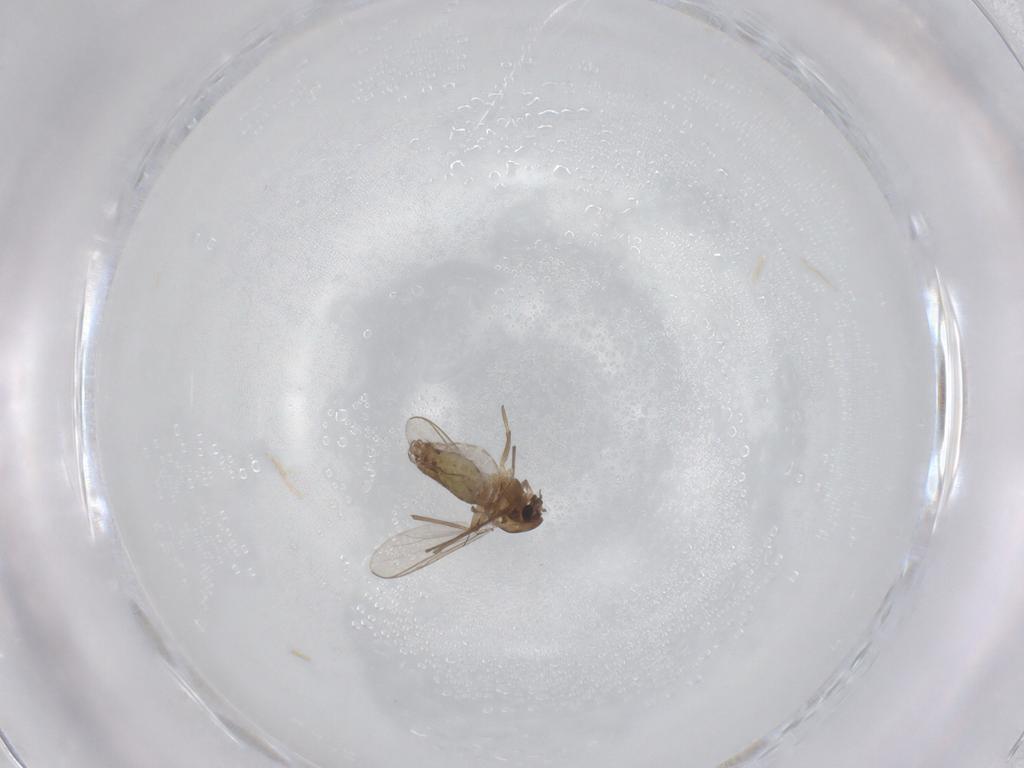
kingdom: Animalia
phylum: Arthropoda
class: Insecta
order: Diptera
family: Chironomidae
